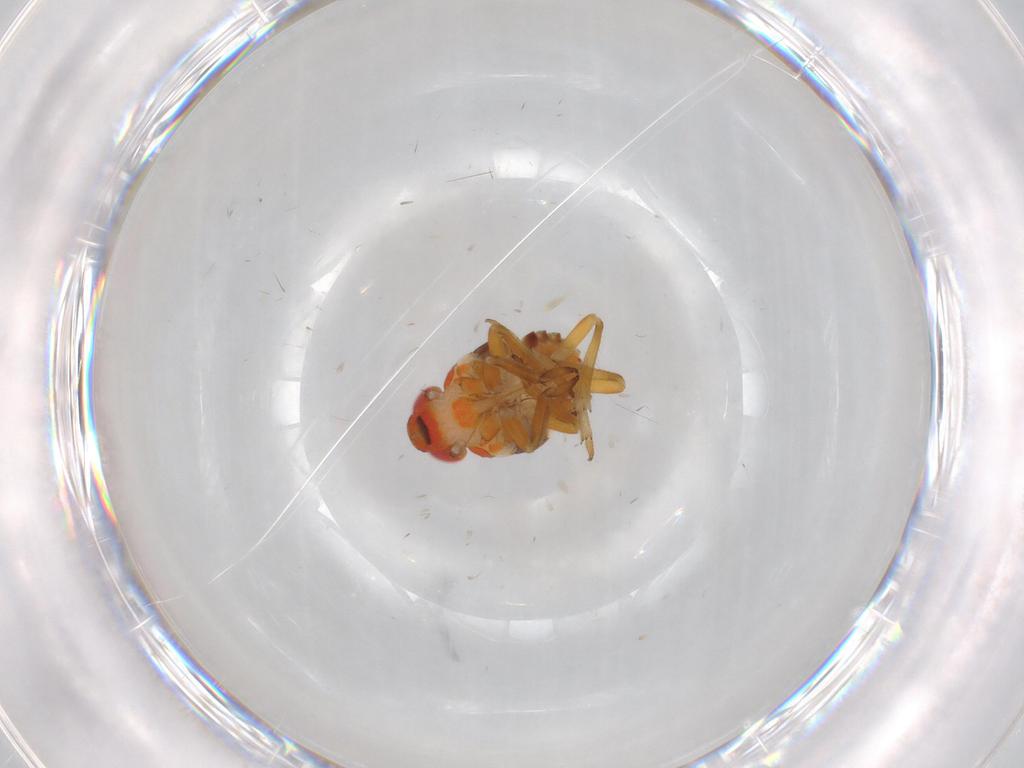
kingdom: Animalia
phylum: Arthropoda
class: Insecta
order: Hemiptera
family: Issidae
